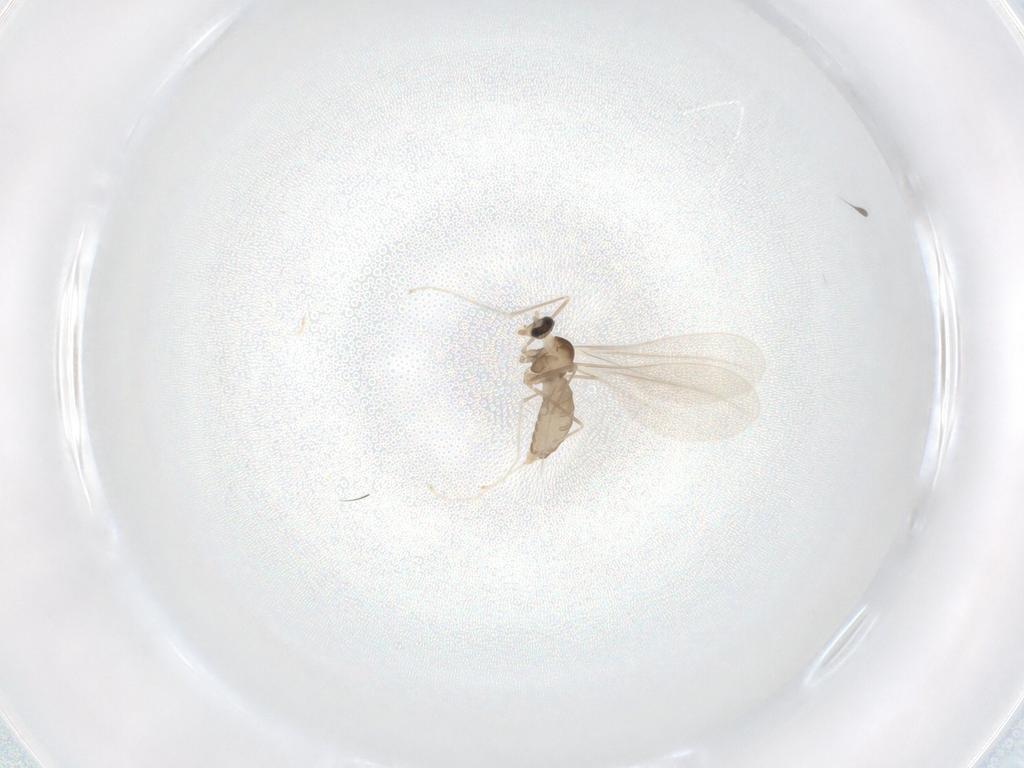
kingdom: Animalia
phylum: Arthropoda
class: Insecta
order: Diptera
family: Cecidomyiidae
